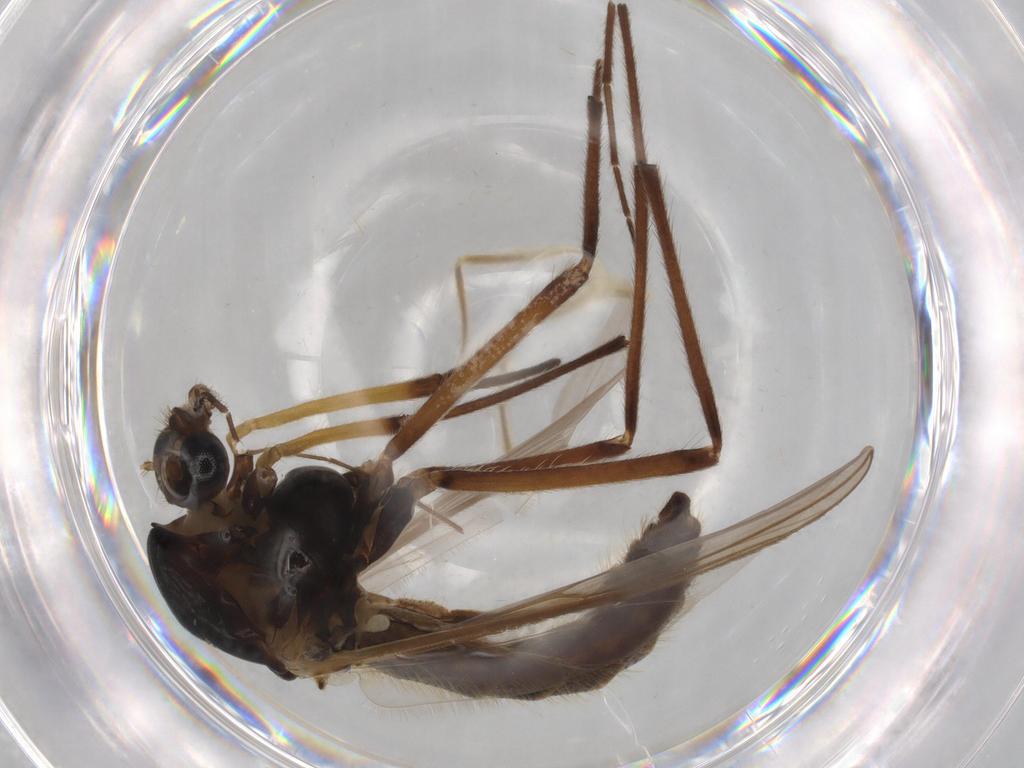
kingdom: Animalia
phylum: Arthropoda
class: Insecta
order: Diptera
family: Chironomidae
